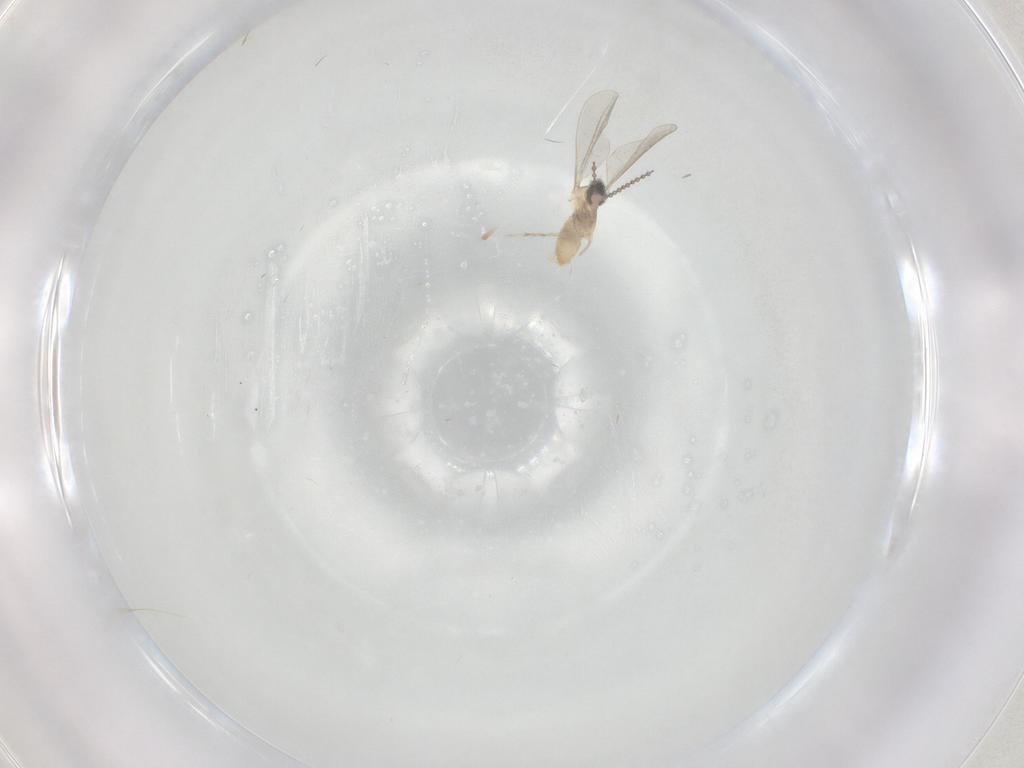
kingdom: Animalia
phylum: Arthropoda
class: Insecta
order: Diptera
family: Cecidomyiidae
